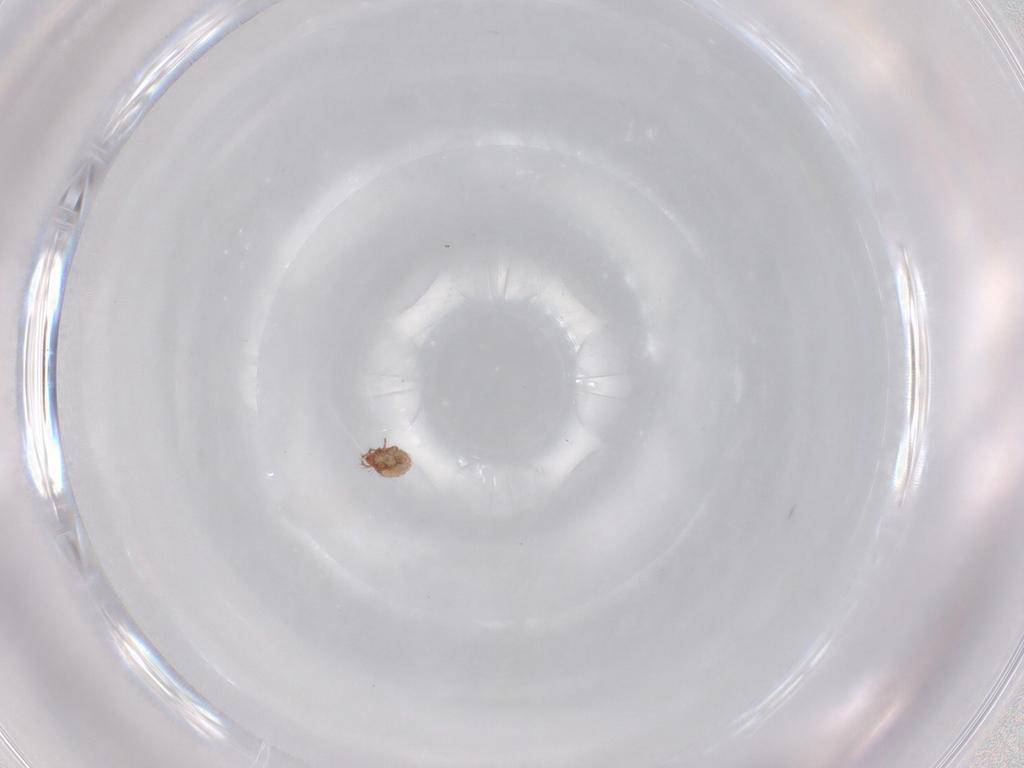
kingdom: Animalia
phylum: Arthropoda
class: Arachnida
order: Sarcoptiformes
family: Ceratozetidae
